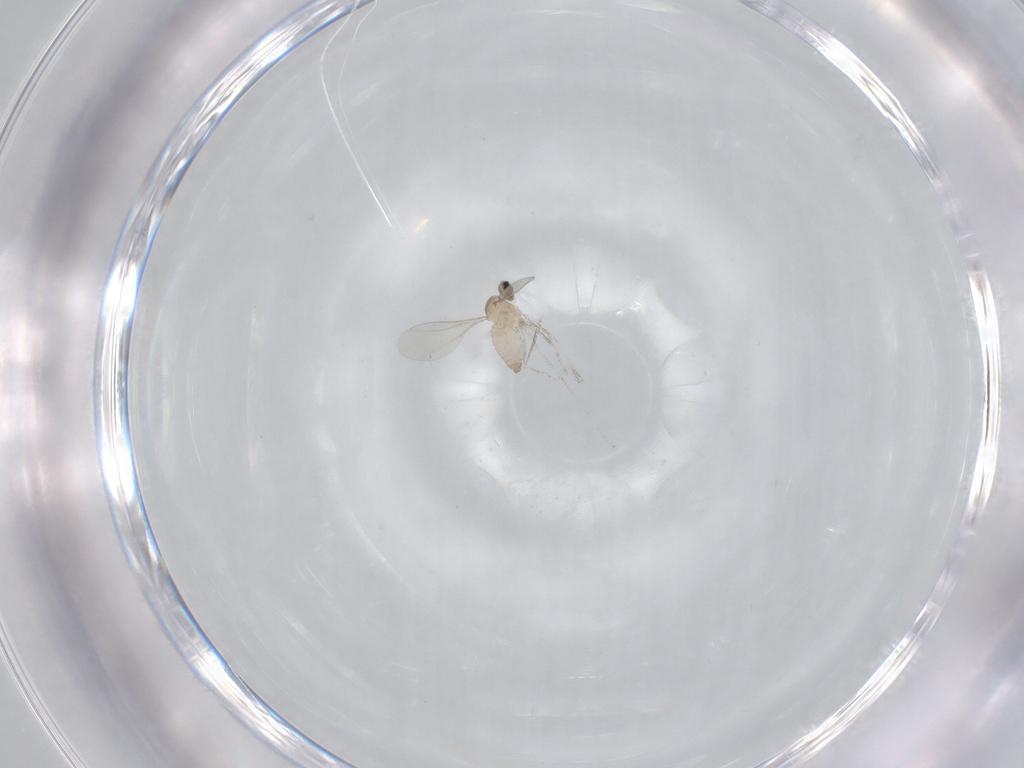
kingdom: Animalia
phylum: Arthropoda
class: Insecta
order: Diptera
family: Cecidomyiidae
